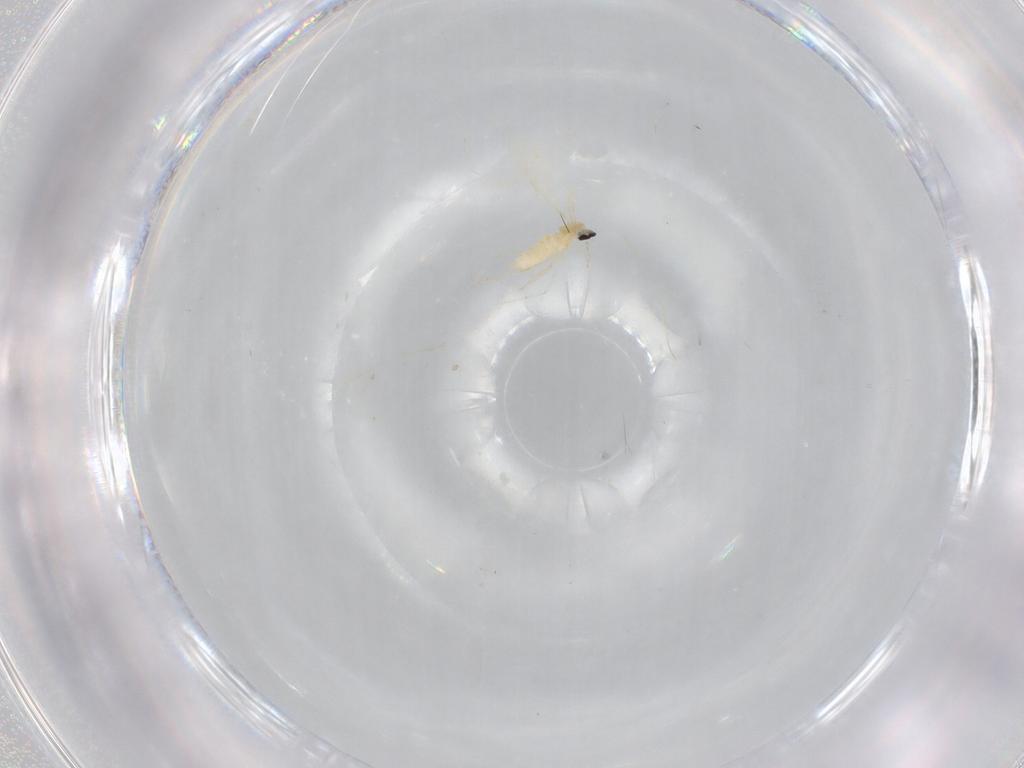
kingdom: Animalia
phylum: Arthropoda
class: Insecta
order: Diptera
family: Cecidomyiidae
